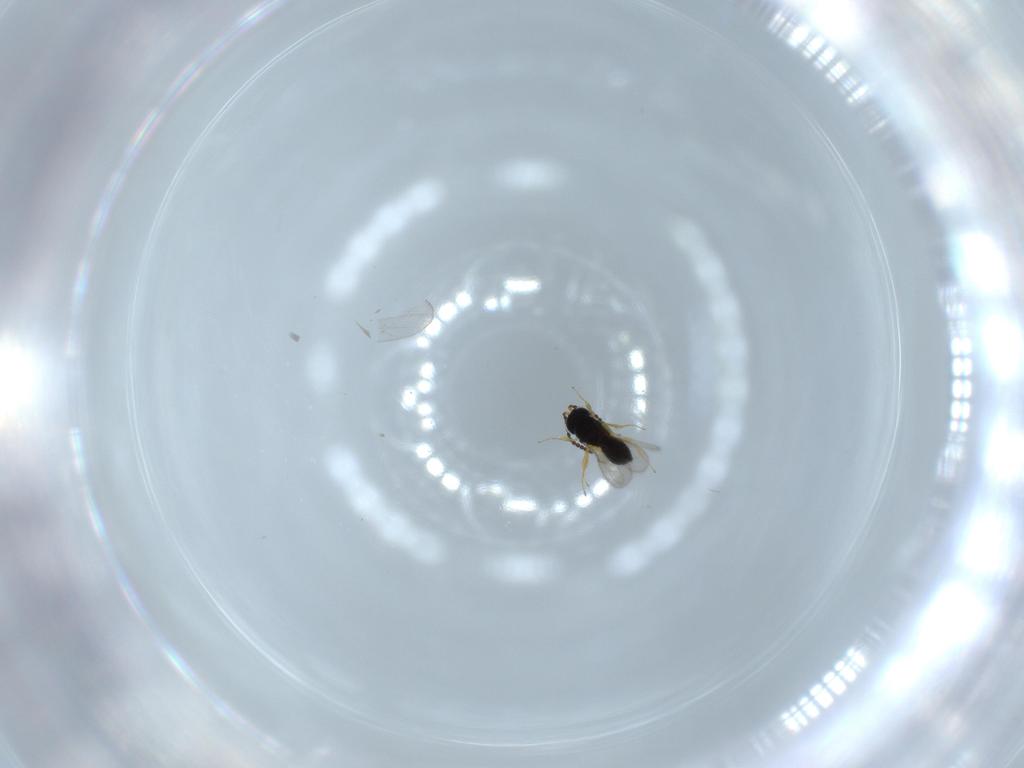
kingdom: Animalia
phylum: Arthropoda
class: Insecta
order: Hymenoptera
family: Scelionidae
